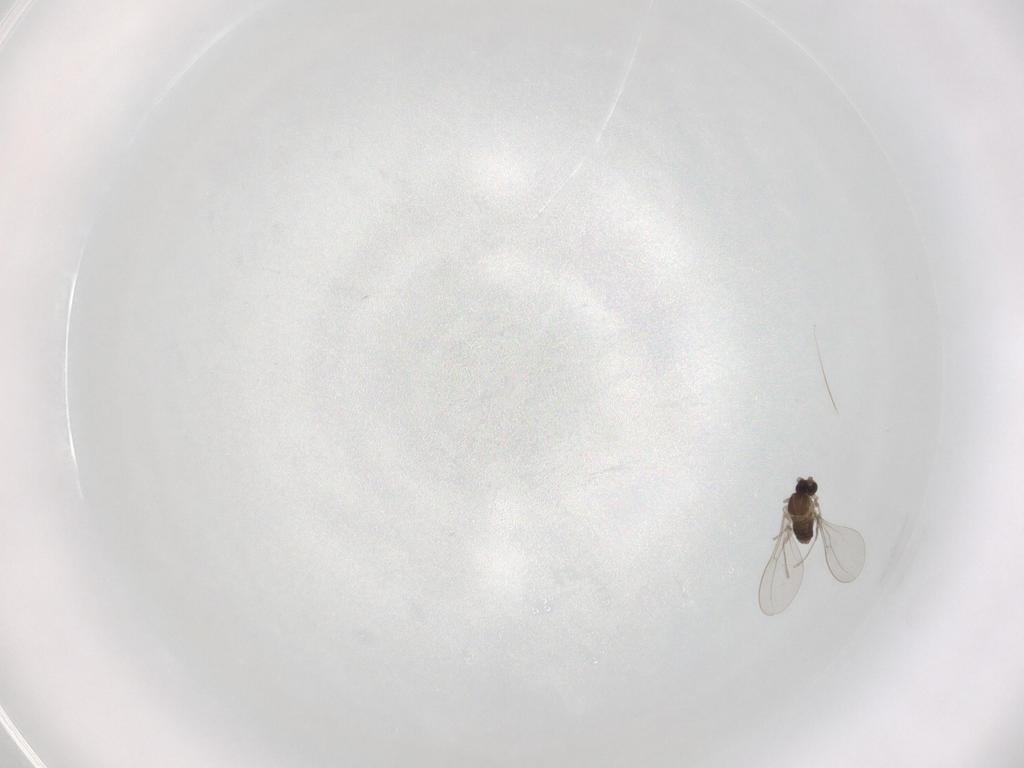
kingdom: Animalia
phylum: Arthropoda
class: Insecta
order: Diptera
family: Cecidomyiidae
